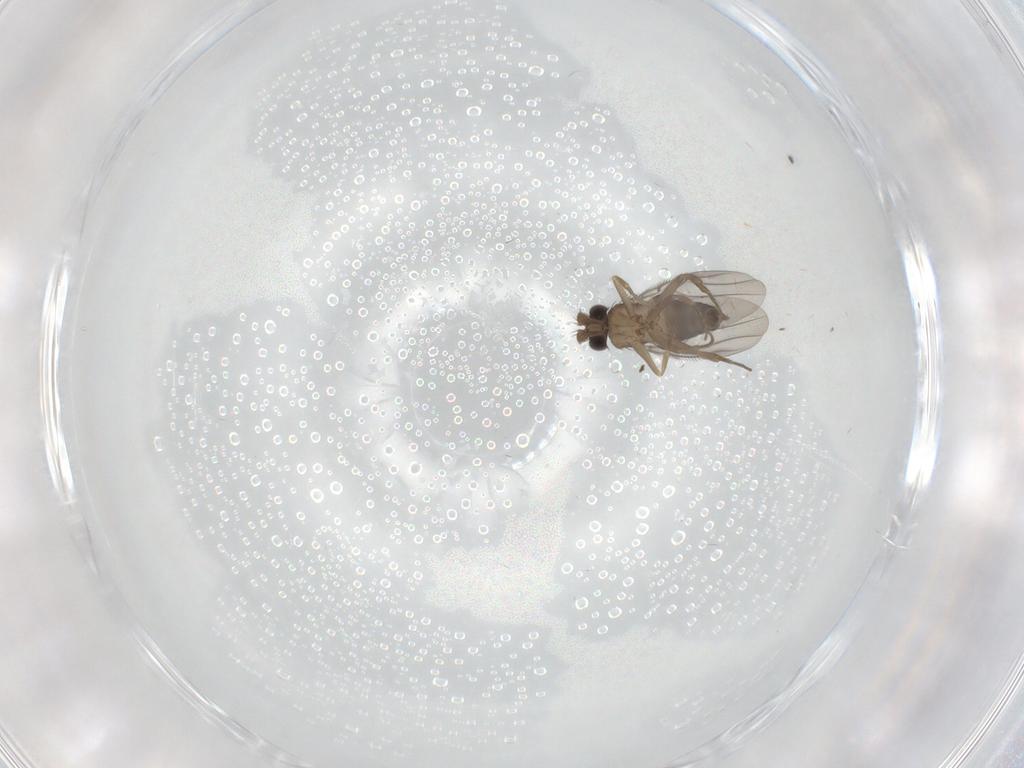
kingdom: Animalia
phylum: Arthropoda
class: Insecta
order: Diptera
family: Phoridae
